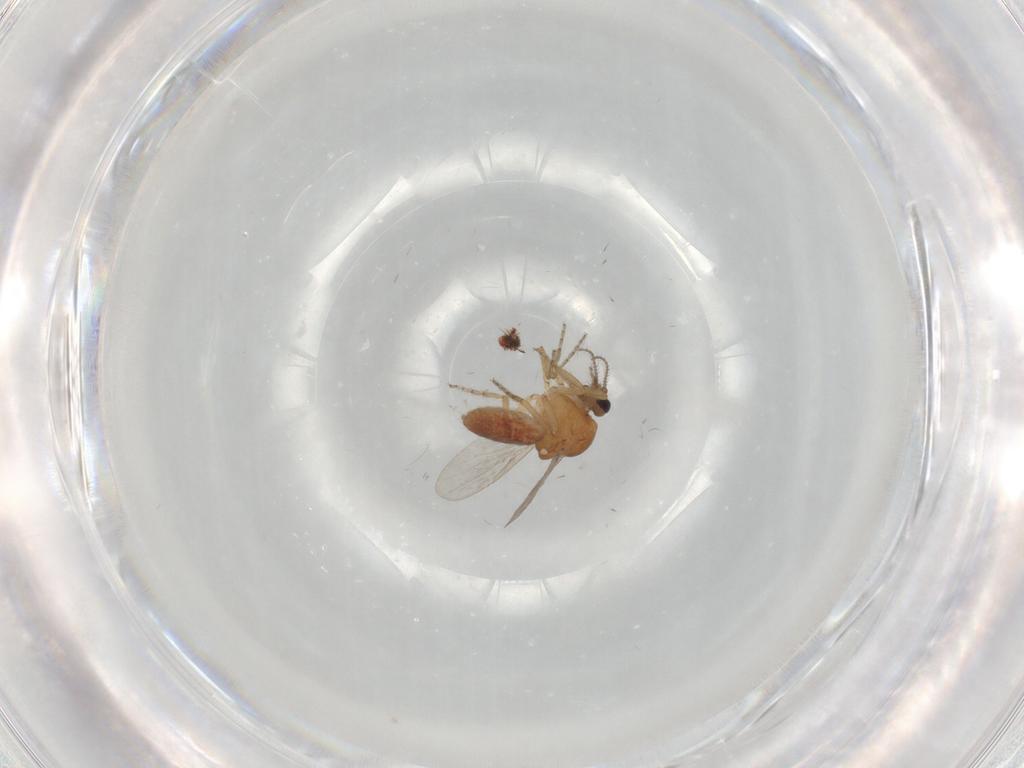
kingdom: Animalia
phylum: Arthropoda
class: Insecta
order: Diptera
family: Ceratopogonidae
